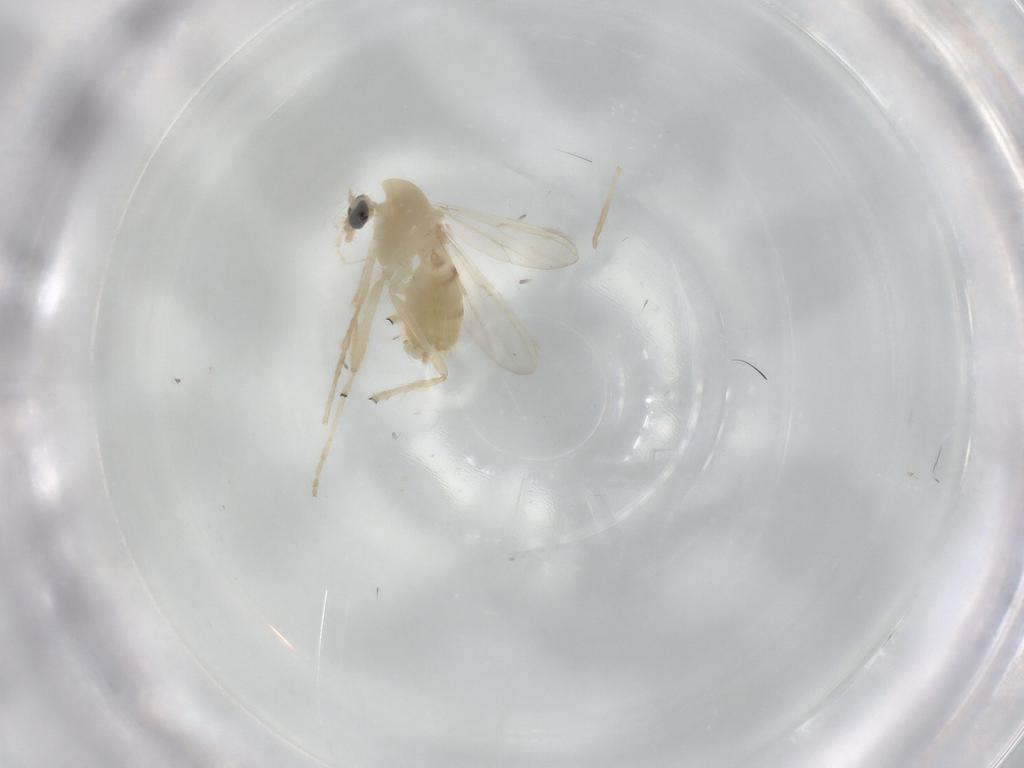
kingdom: Animalia
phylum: Arthropoda
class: Insecta
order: Diptera
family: Chironomidae
